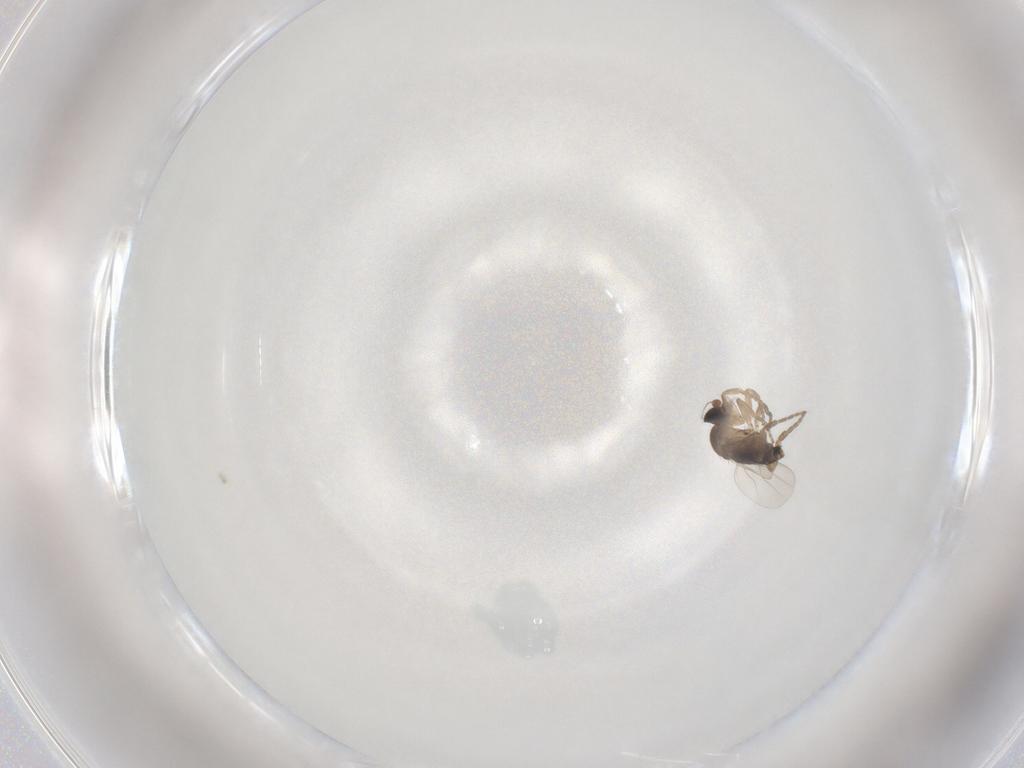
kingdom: Animalia
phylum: Arthropoda
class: Insecta
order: Diptera
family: Psychodidae
